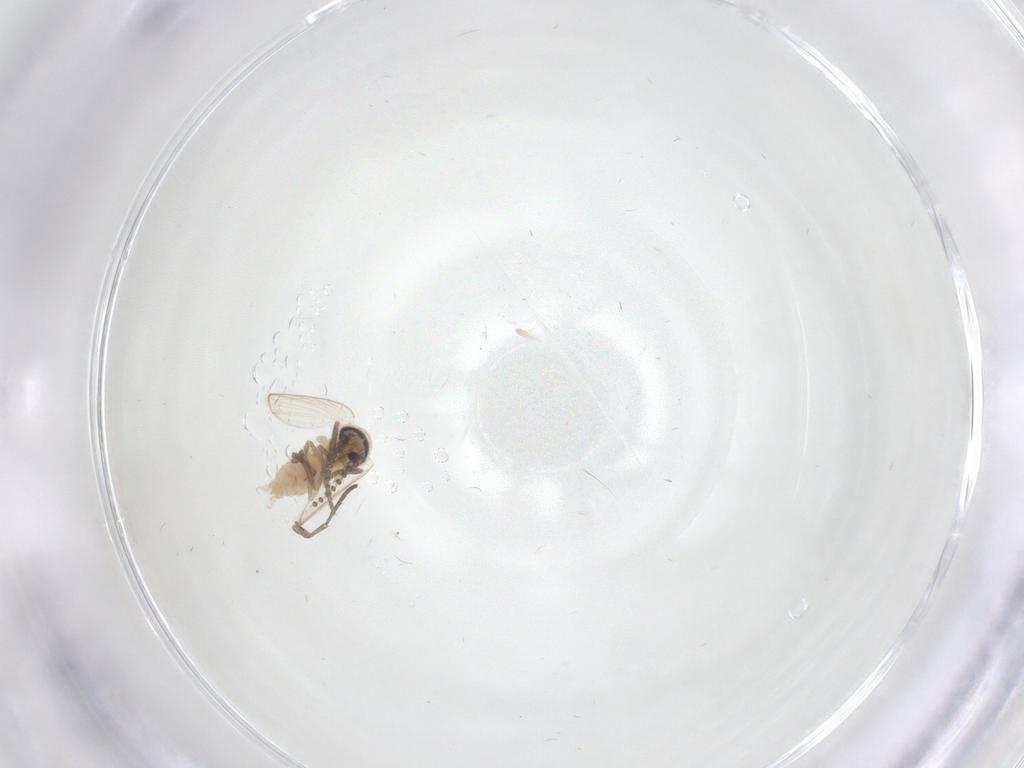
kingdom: Animalia
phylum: Arthropoda
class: Insecta
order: Diptera
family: Psychodidae
